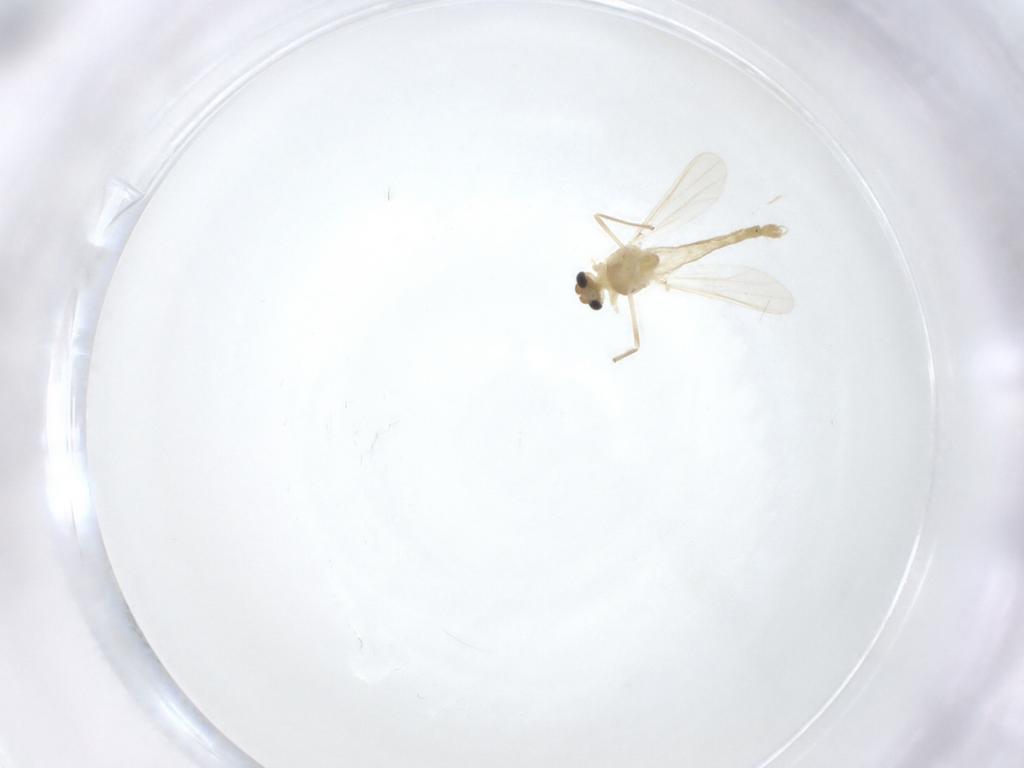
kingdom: Animalia
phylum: Arthropoda
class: Insecta
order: Diptera
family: Chironomidae
